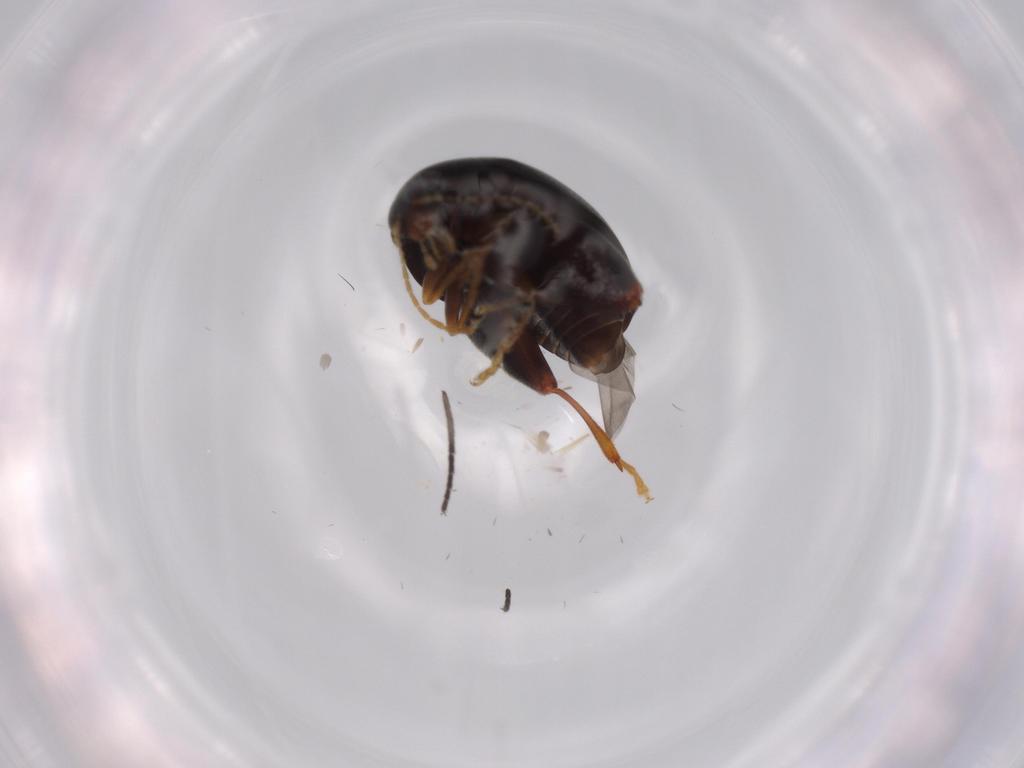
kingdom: Animalia
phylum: Arthropoda
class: Insecta
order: Coleoptera
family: Chrysomelidae
